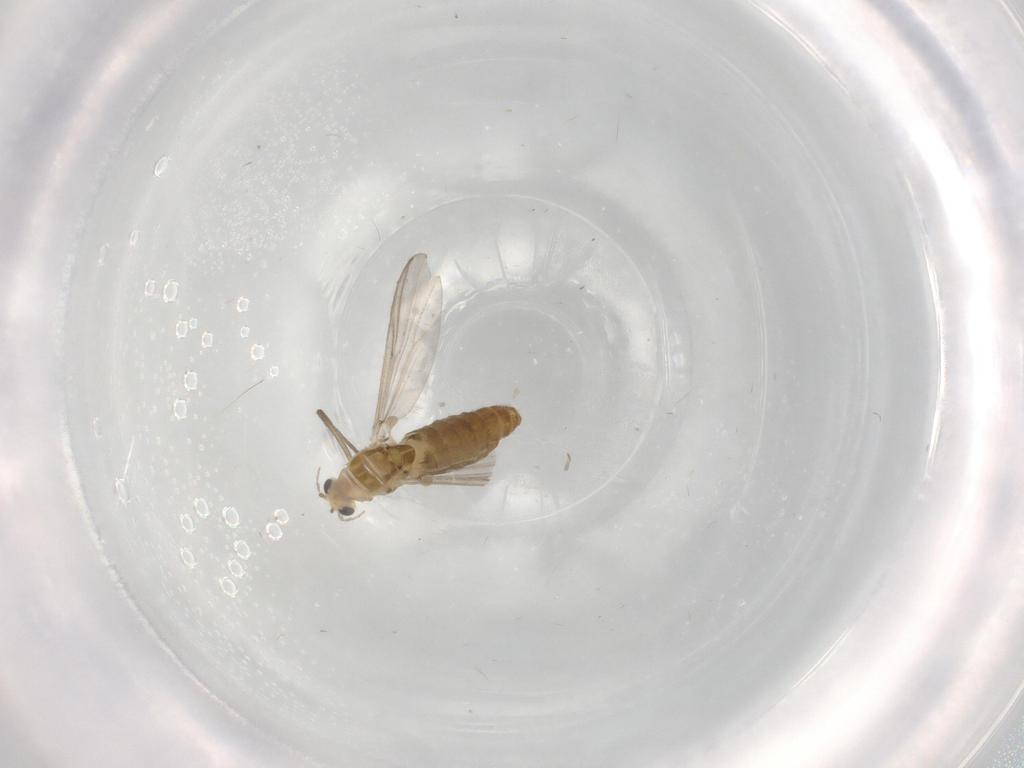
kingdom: Animalia
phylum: Arthropoda
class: Insecta
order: Diptera
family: Chironomidae
